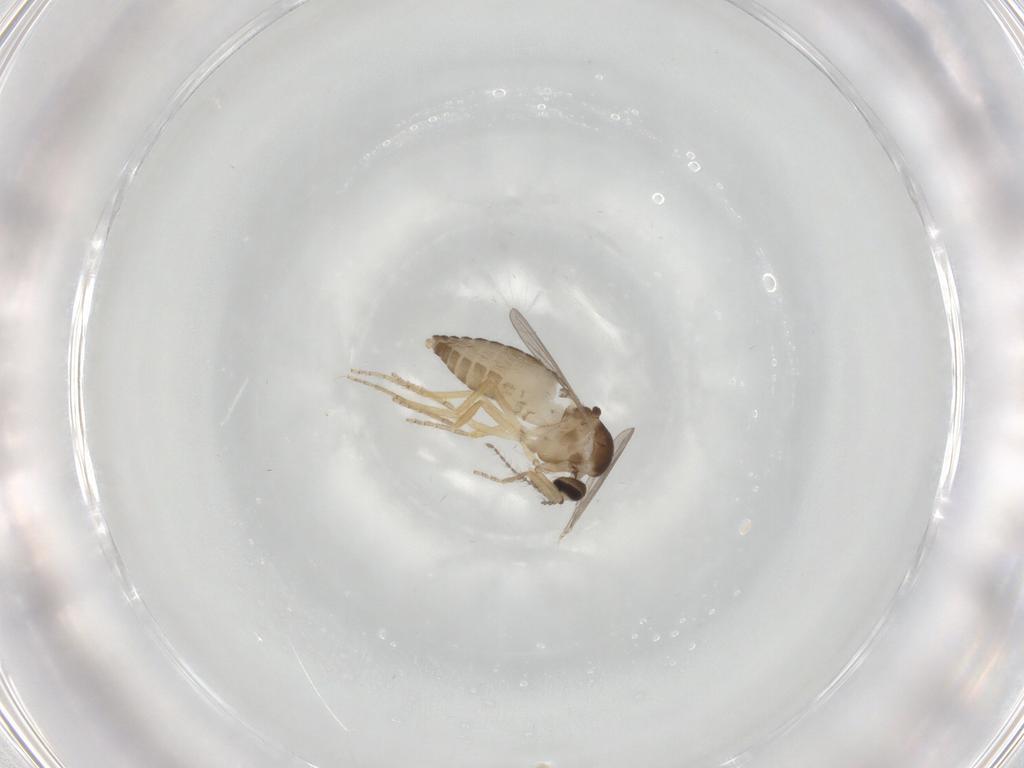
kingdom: Animalia
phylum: Arthropoda
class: Insecta
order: Diptera
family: Ceratopogonidae
